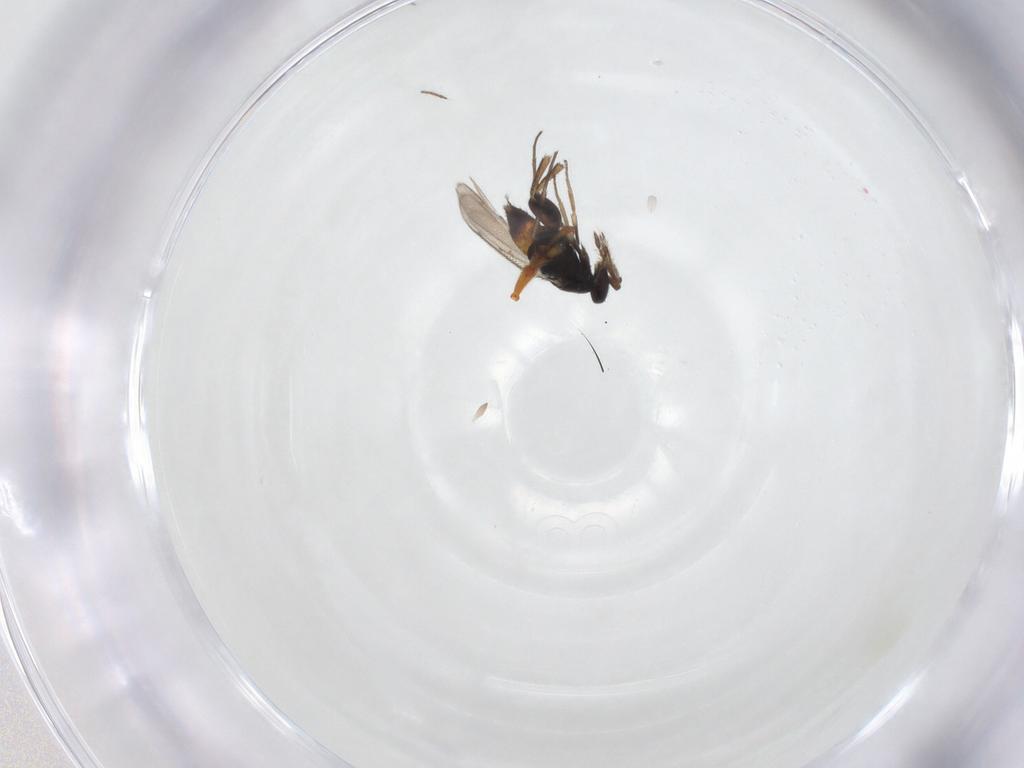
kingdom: Animalia
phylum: Arthropoda
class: Insecta
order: Hymenoptera
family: Eulophidae
